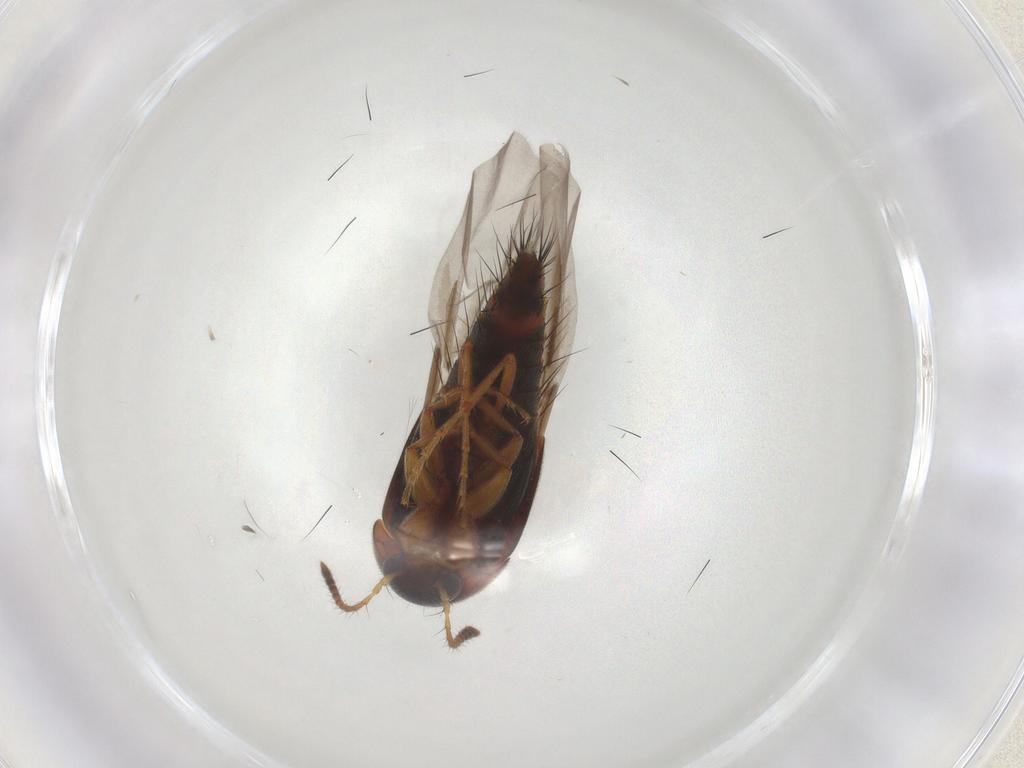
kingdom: Animalia
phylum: Arthropoda
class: Insecta
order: Coleoptera
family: Staphylinidae
